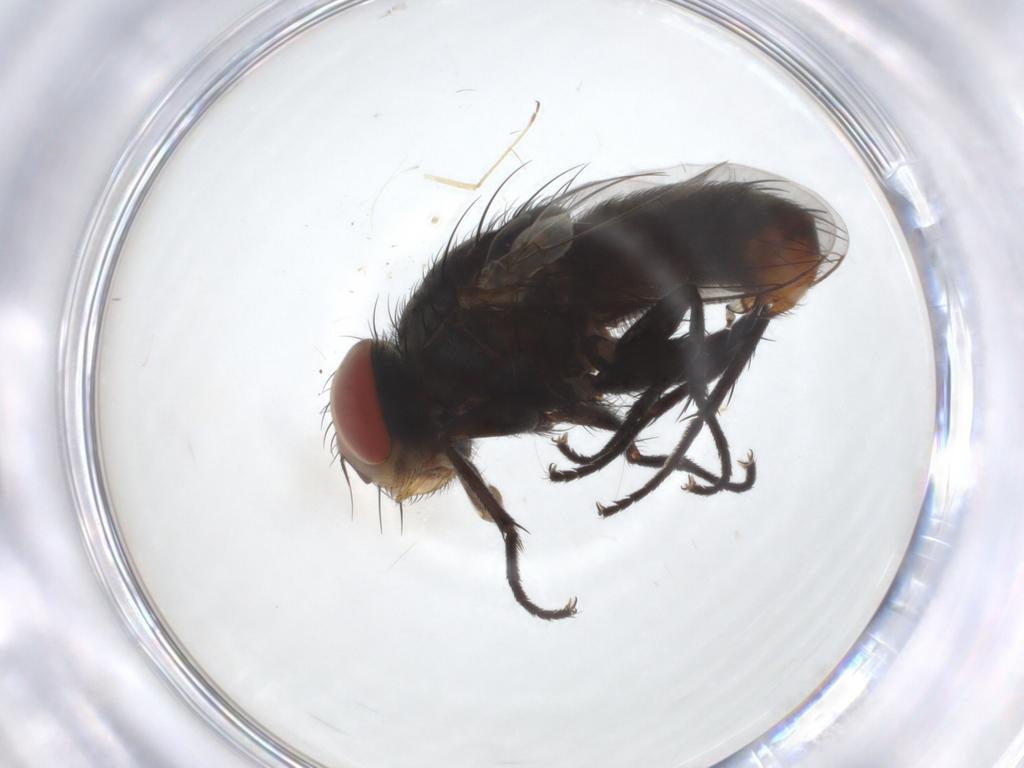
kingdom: Animalia
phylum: Arthropoda
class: Insecta
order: Diptera
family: Sarcophagidae
